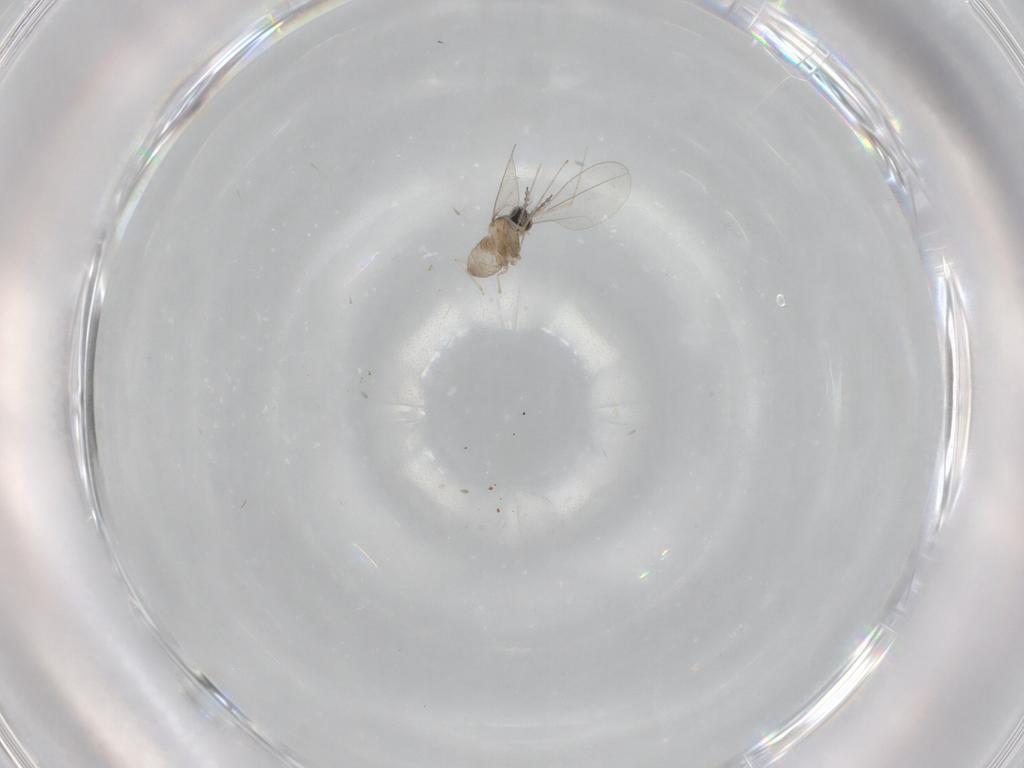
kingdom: Animalia
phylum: Arthropoda
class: Insecta
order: Diptera
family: Cecidomyiidae
